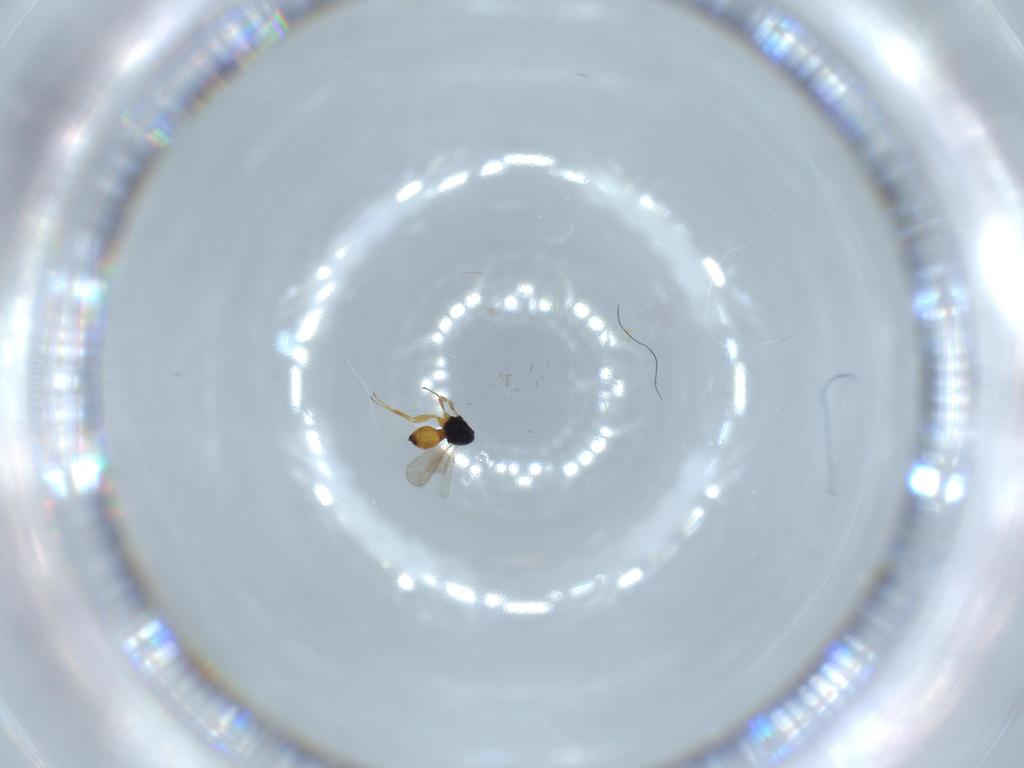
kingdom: Animalia
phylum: Arthropoda
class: Insecta
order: Hymenoptera
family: Scelionidae
